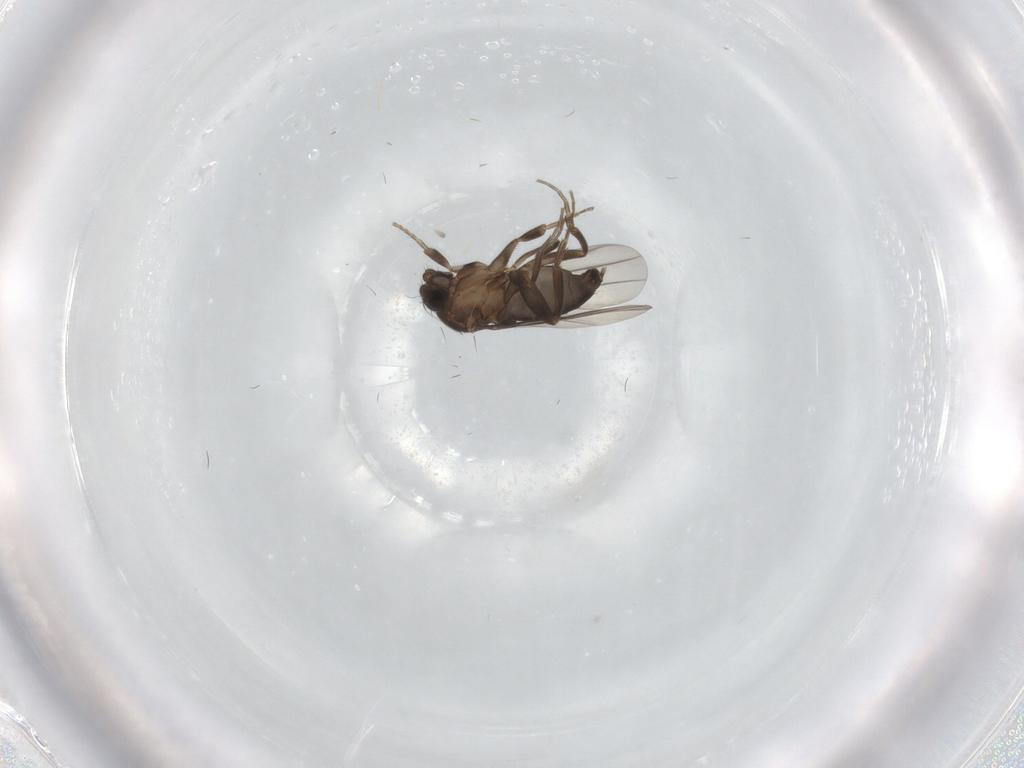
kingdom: Animalia
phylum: Arthropoda
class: Insecta
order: Diptera
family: Phoridae
